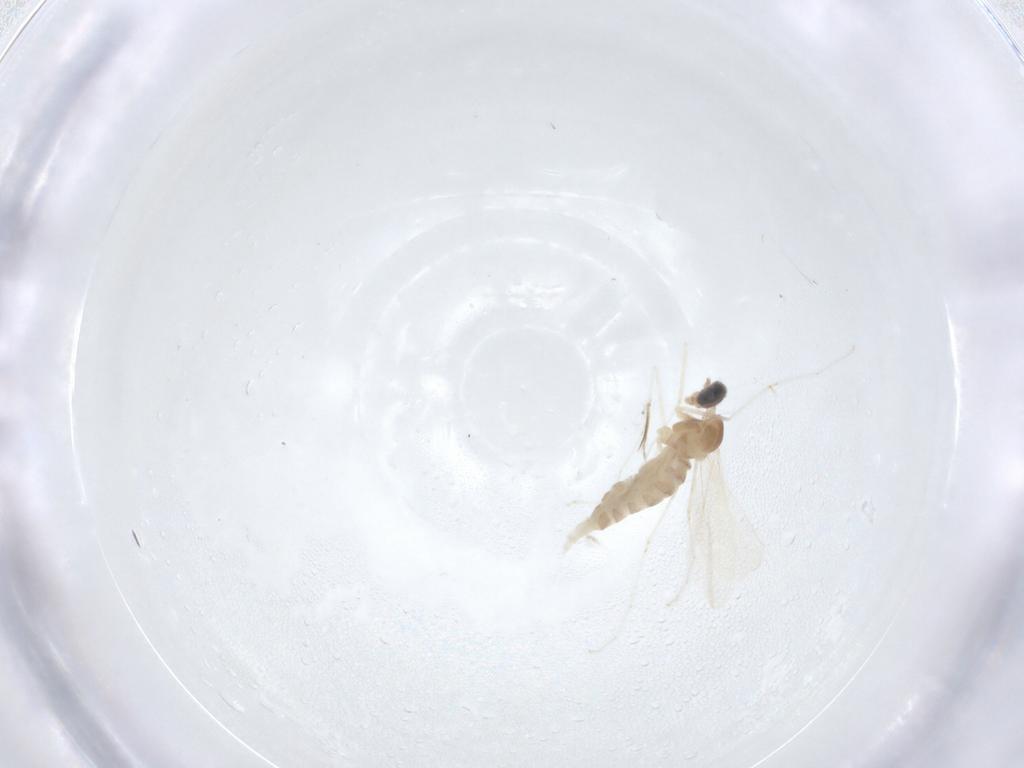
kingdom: Animalia
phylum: Arthropoda
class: Insecta
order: Diptera
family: Cecidomyiidae
